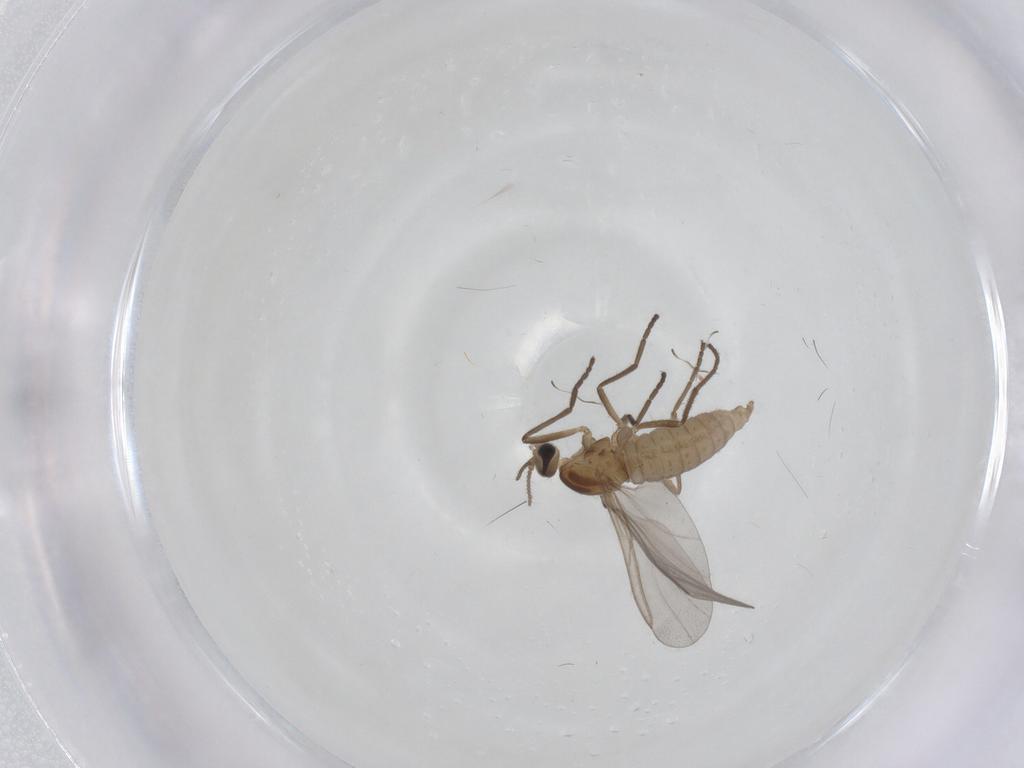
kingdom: Animalia
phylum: Arthropoda
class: Insecta
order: Diptera
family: Cecidomyiidae
